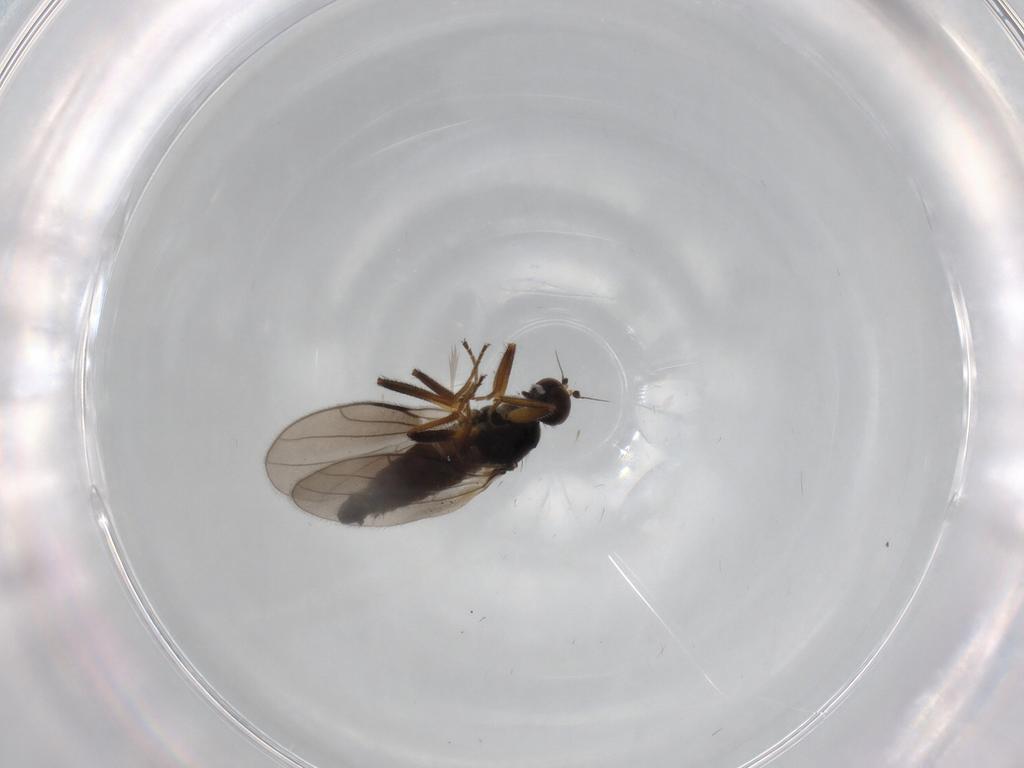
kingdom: Animalia
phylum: Arthropoda
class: Insecta
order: Diptera
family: Hybotidae
